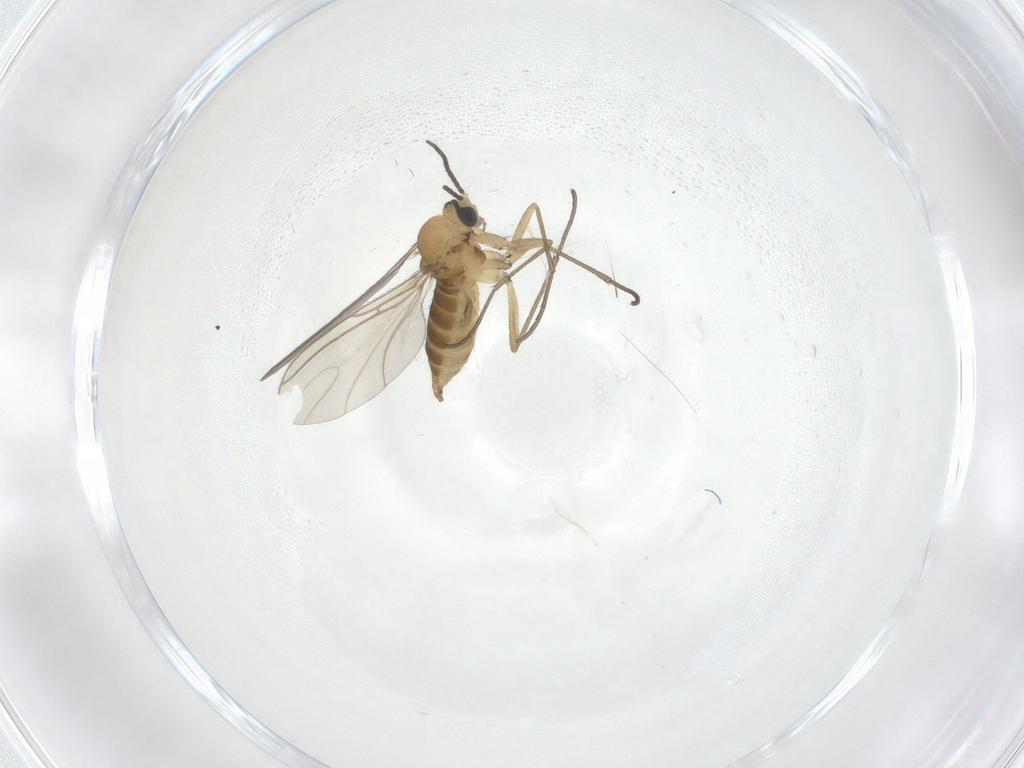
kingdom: Animalia
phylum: Arthropoda
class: Insecta
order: Diptera
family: Sciaridae
